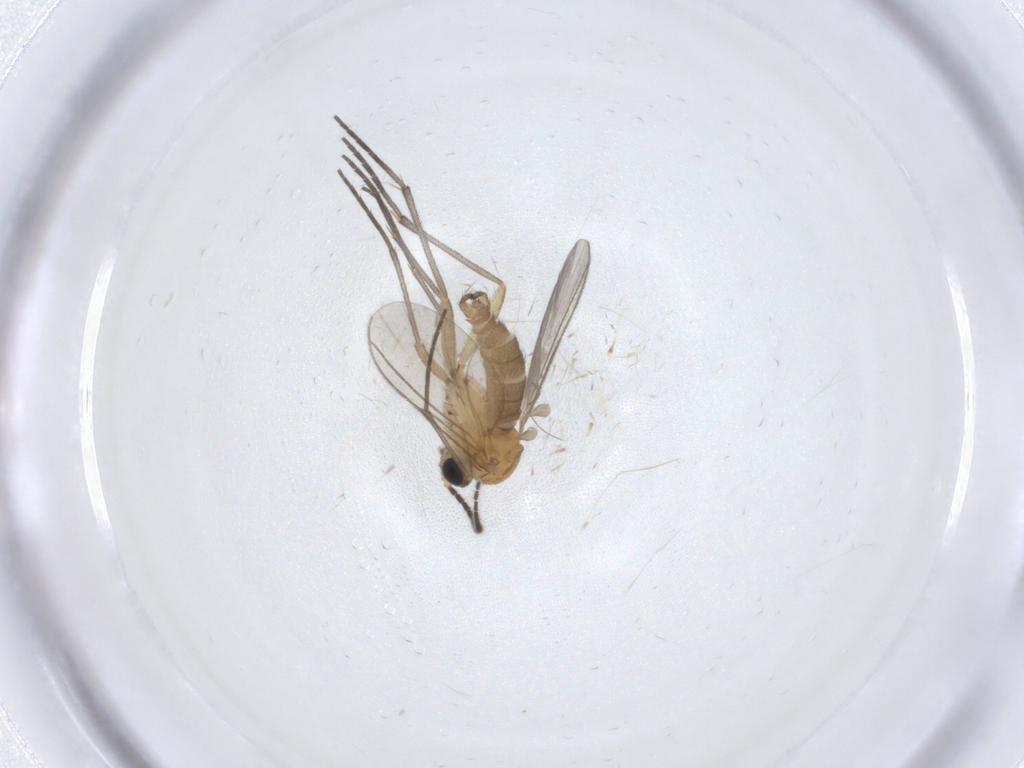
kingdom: Animalia
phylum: Arthropoda
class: Insecta
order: Diptera
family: Sciaridae
